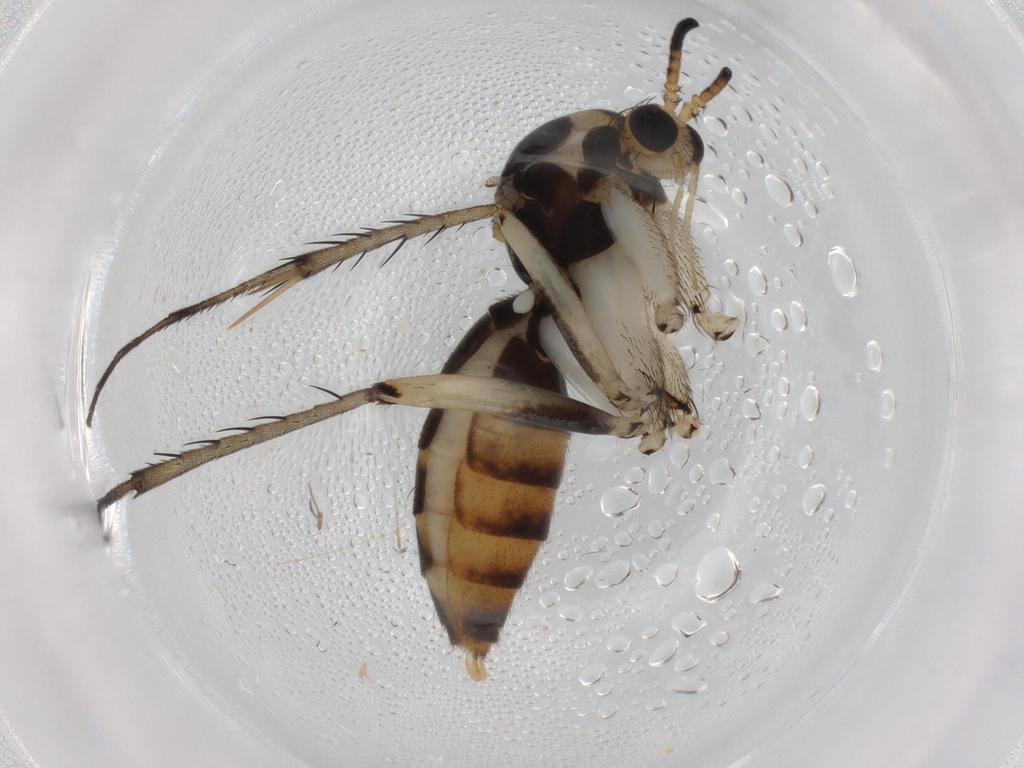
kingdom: Animalia
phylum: Arthropoda
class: Insecta
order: Diptera
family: Mycetophilidae
